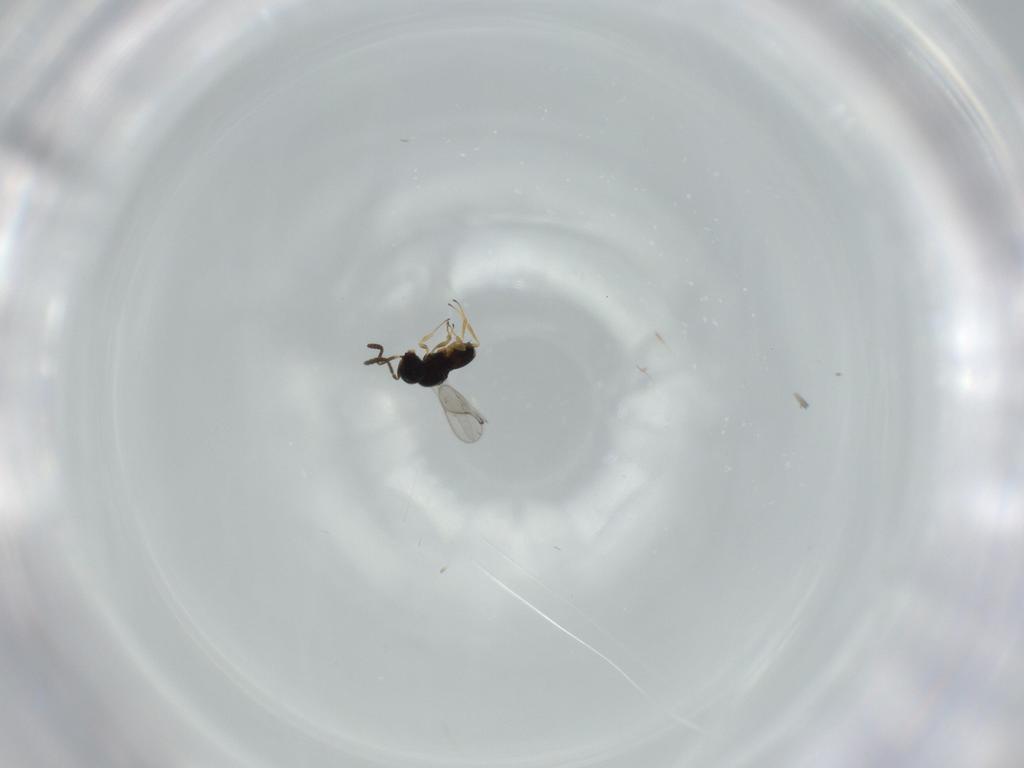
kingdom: Animalia
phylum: Arthropoda
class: Insecta
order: Hymenoptera
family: Scelionidae
